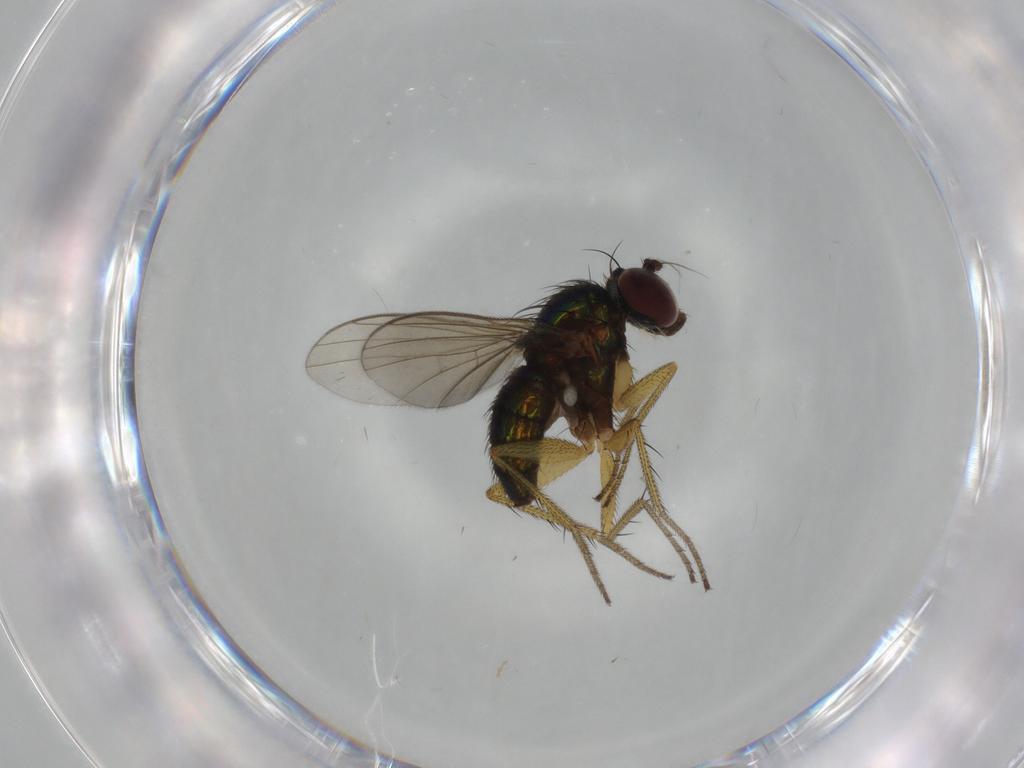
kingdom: Animalia
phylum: Arthropoda
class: Insecta
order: Diptera
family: Dolichopodidae
